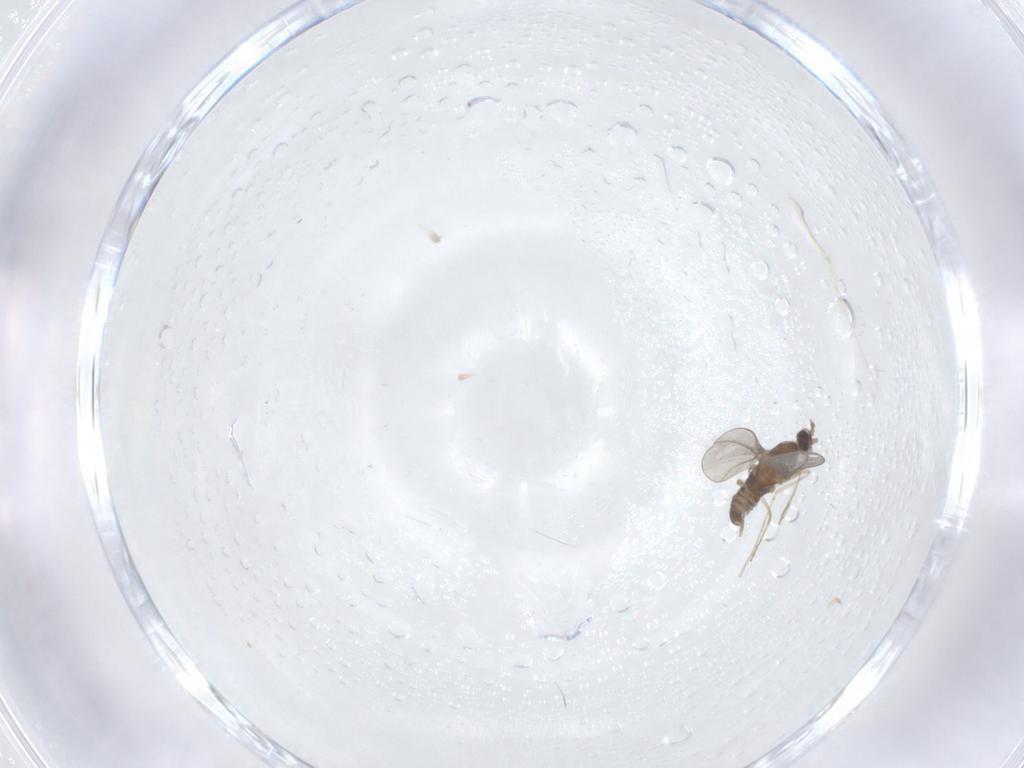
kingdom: Animalia
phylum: Arthropoda
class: Insecta
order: Diptera
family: Cecidomyiidae
